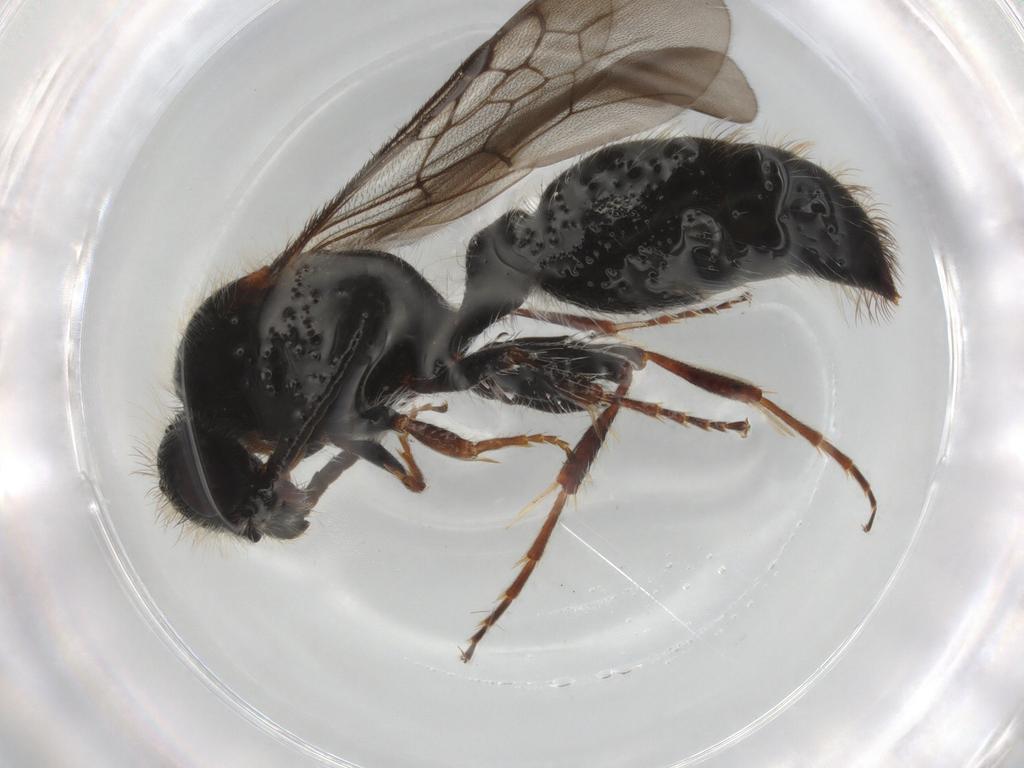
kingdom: Animalia
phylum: Arthropoda
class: Insecta
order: Hymenoptera
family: Mutillidae
